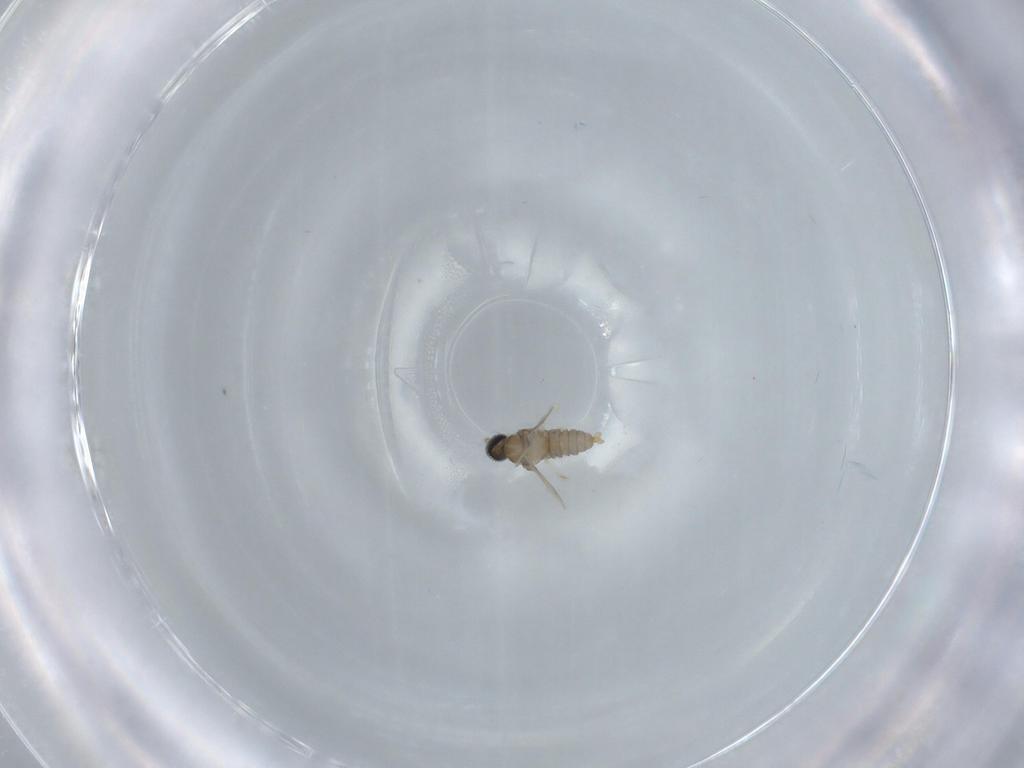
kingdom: Animalia
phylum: Arthropoda
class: Insecta
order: Diptera
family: Cecidomyiidae
